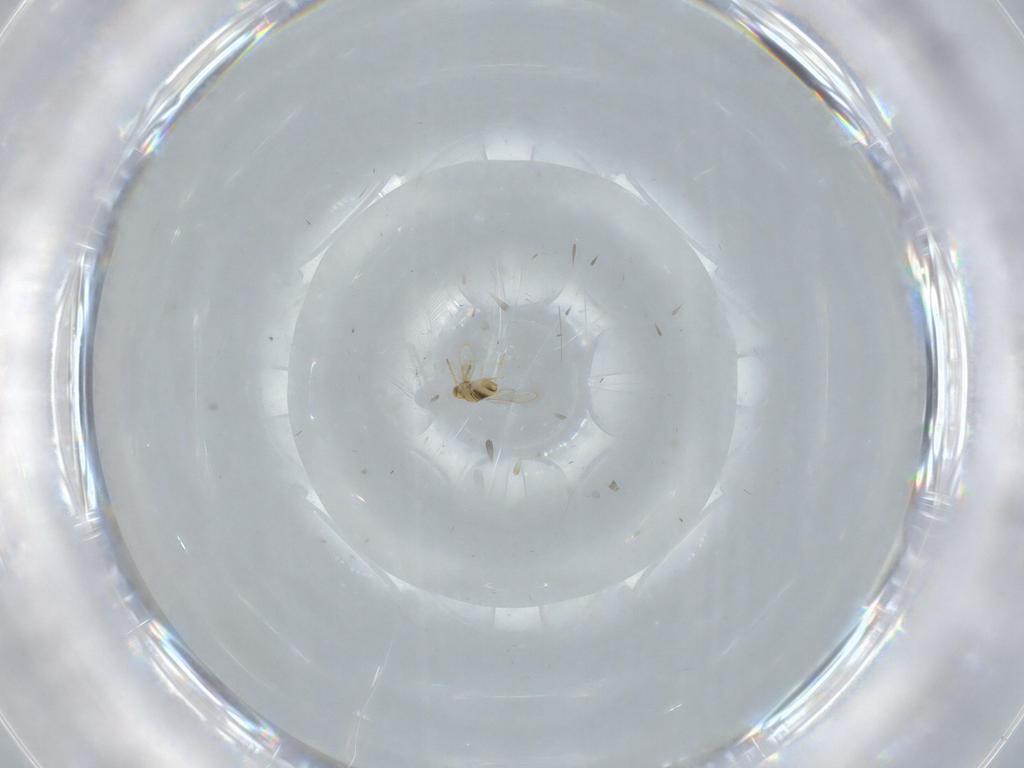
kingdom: Animalia
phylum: Arthropoda
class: Insecta
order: Hymenoptera
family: Aphelinidae
